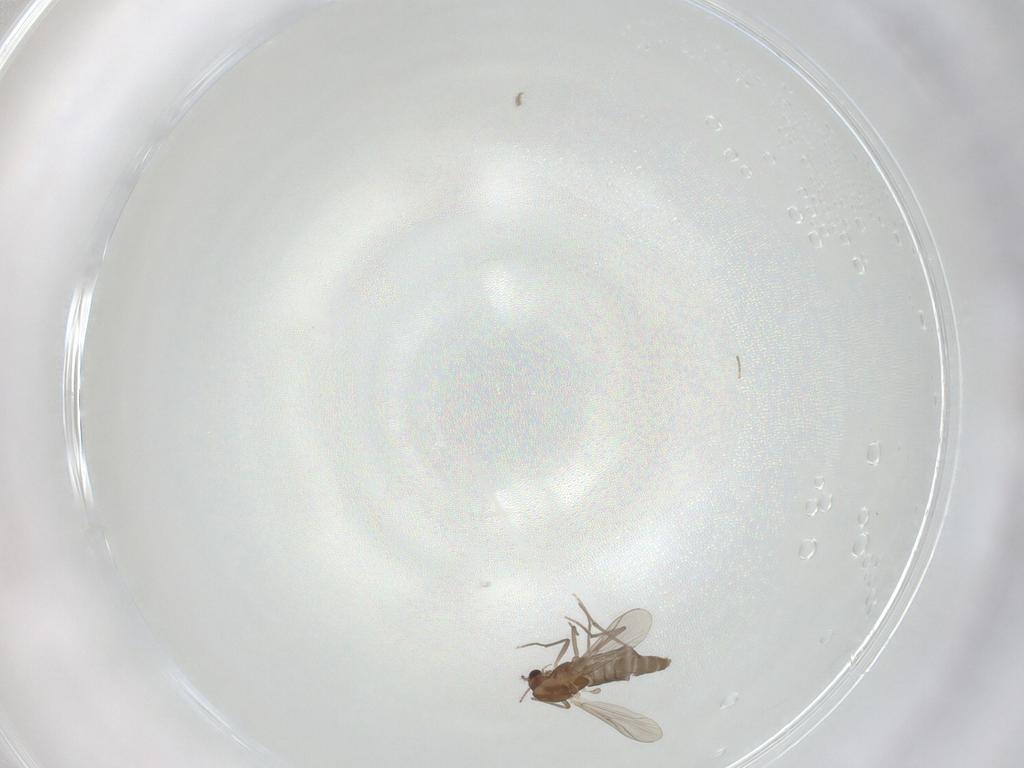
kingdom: Animalia
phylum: Arthropoda
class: Insecta
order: Diptera
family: Chironomidae
